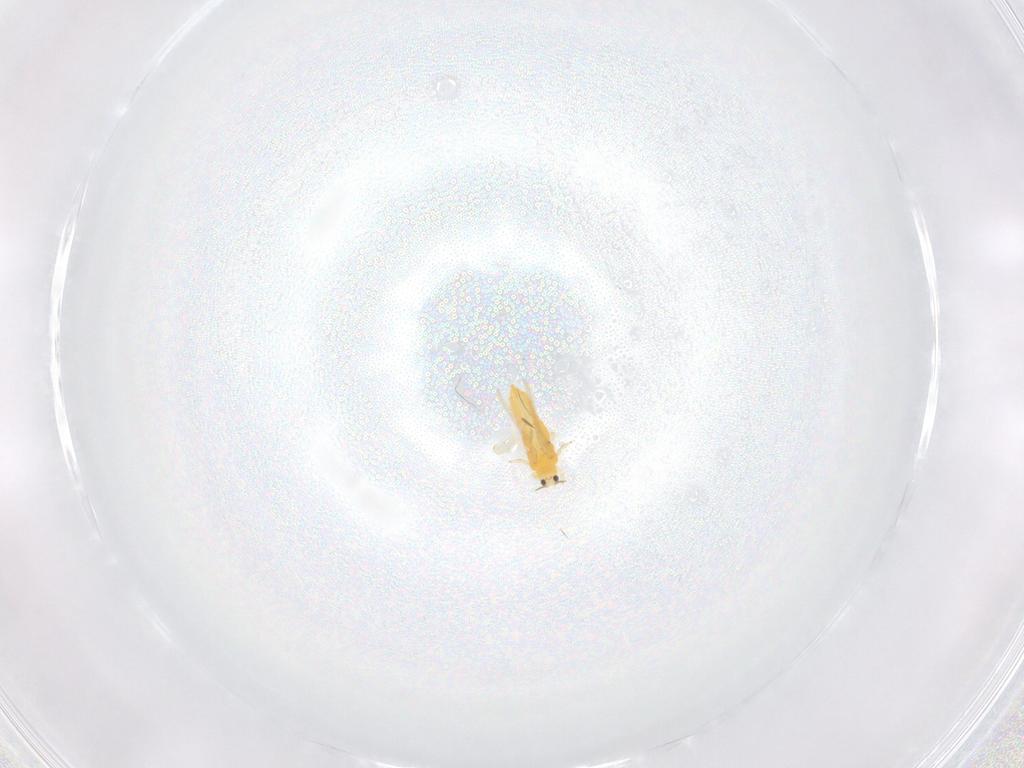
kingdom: Animalia
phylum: Arthropoda
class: Insecta
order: Thysanoptera
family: Thripidae
